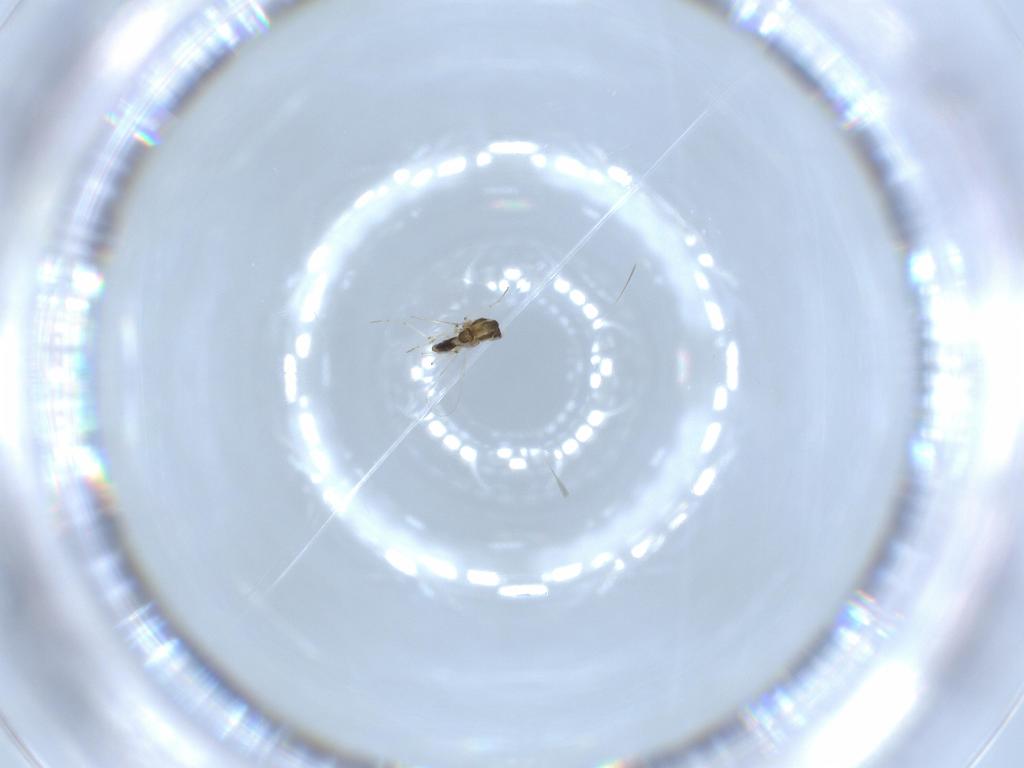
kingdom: Animalia
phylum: Arthropoda
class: Insecta
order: Diptera
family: Chironomidae
